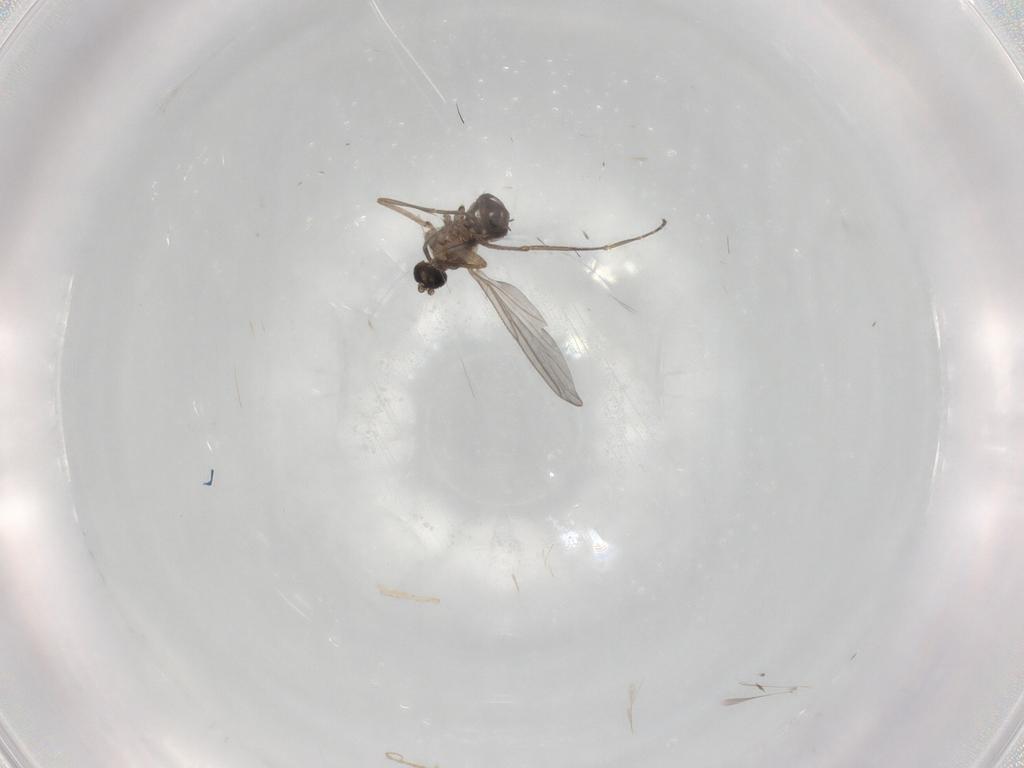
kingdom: Animalia
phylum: Arthropoda
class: Insecta
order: Diptera
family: Sciaridae
